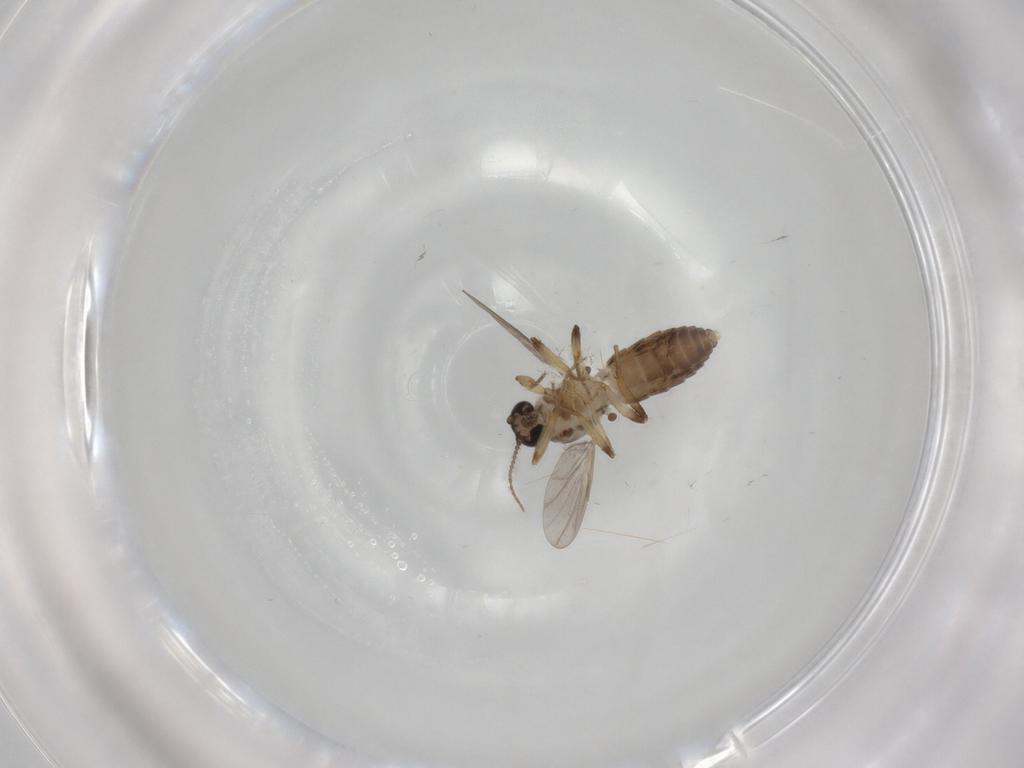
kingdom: Animalia
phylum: Arthropoda
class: Insecta
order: Diptera
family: Ceratopogonidae
